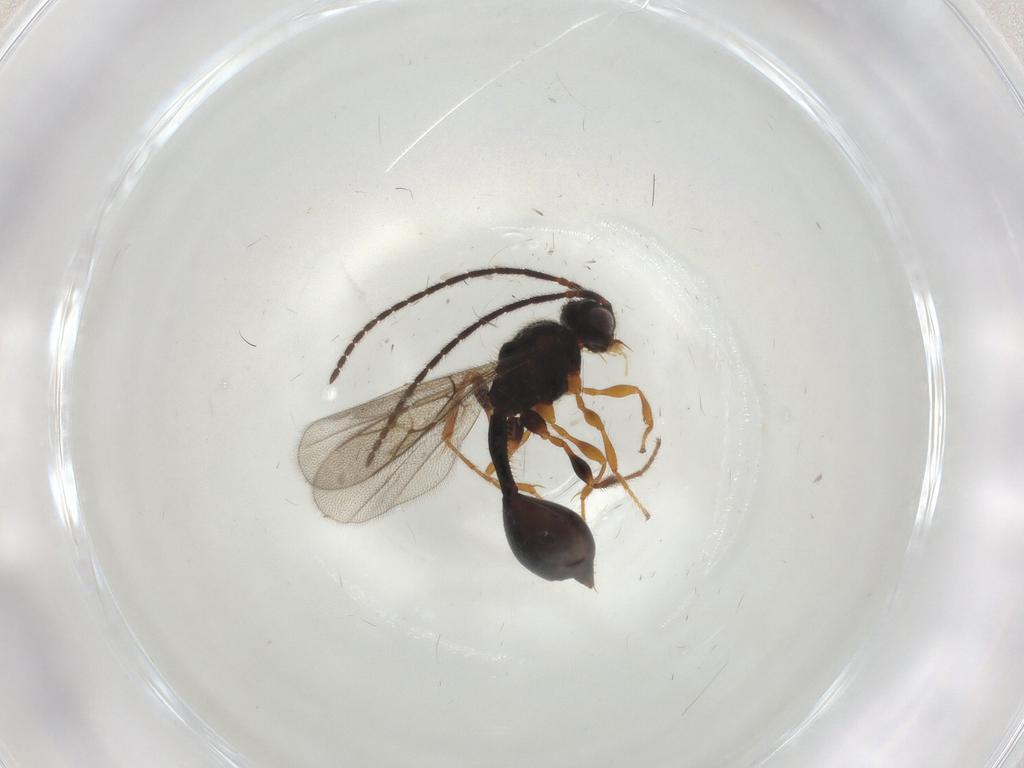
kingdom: Animalia
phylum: Arthropoda
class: Insecta
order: Hymenoptera
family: Diapriidae
